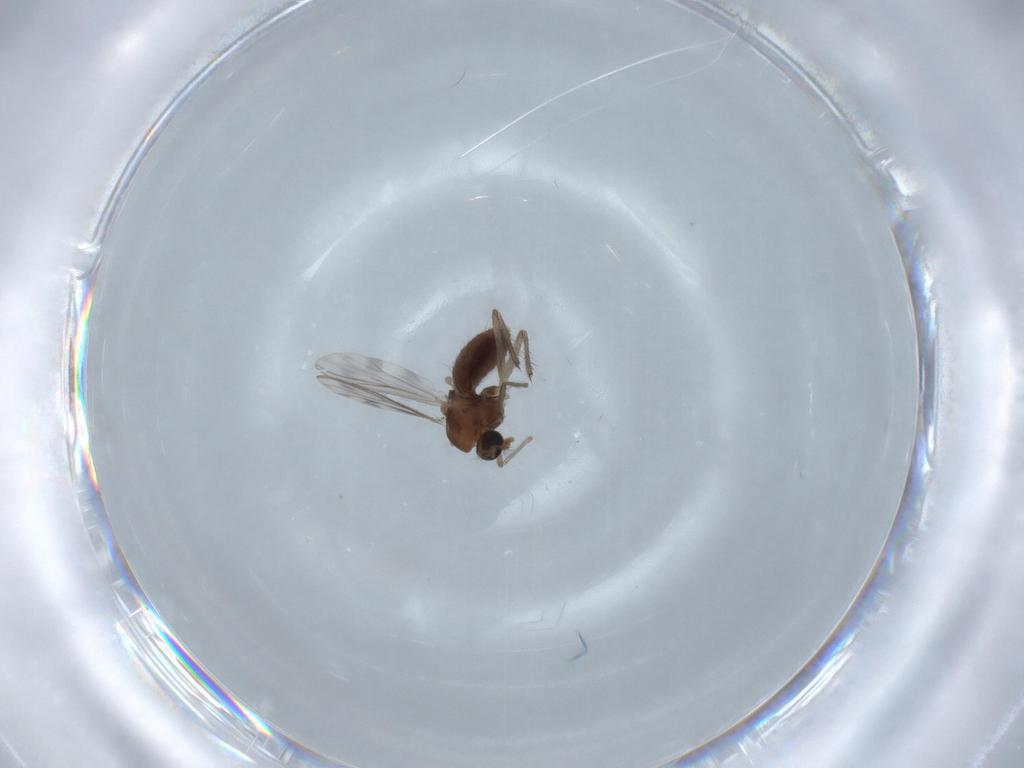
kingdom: Animalia
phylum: Arthropoda
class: Insecta
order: Diptera
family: Chironomidae
